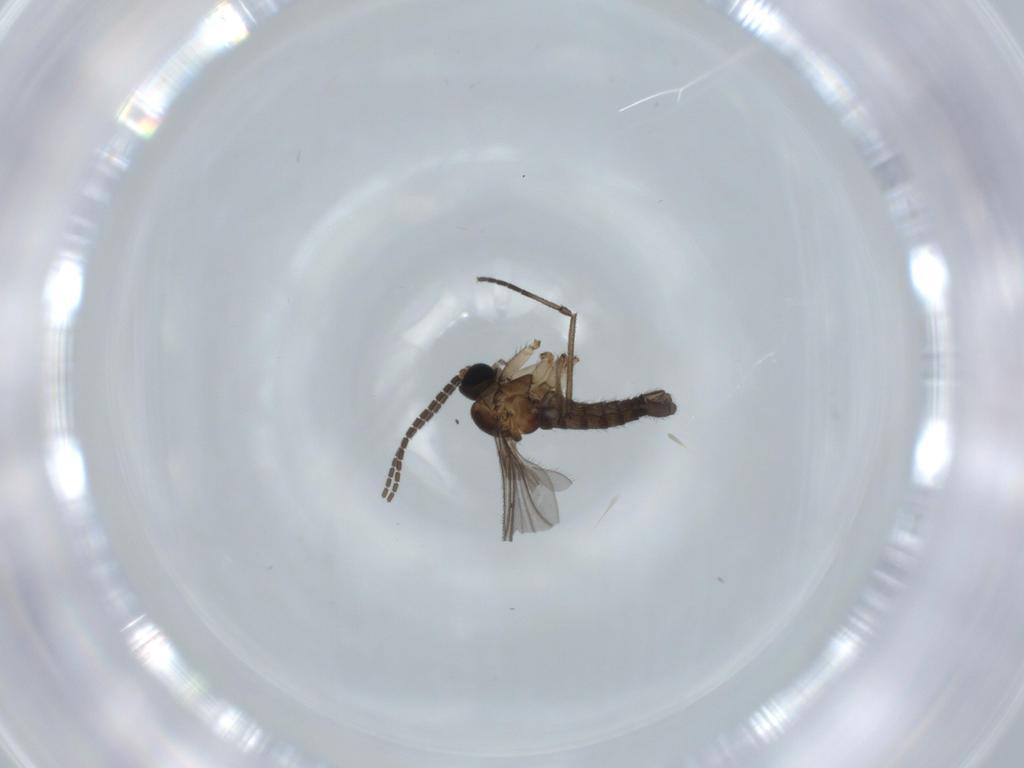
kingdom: Animalia
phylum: Arthropoda
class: Insecta
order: Diptera
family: Sciaridae
